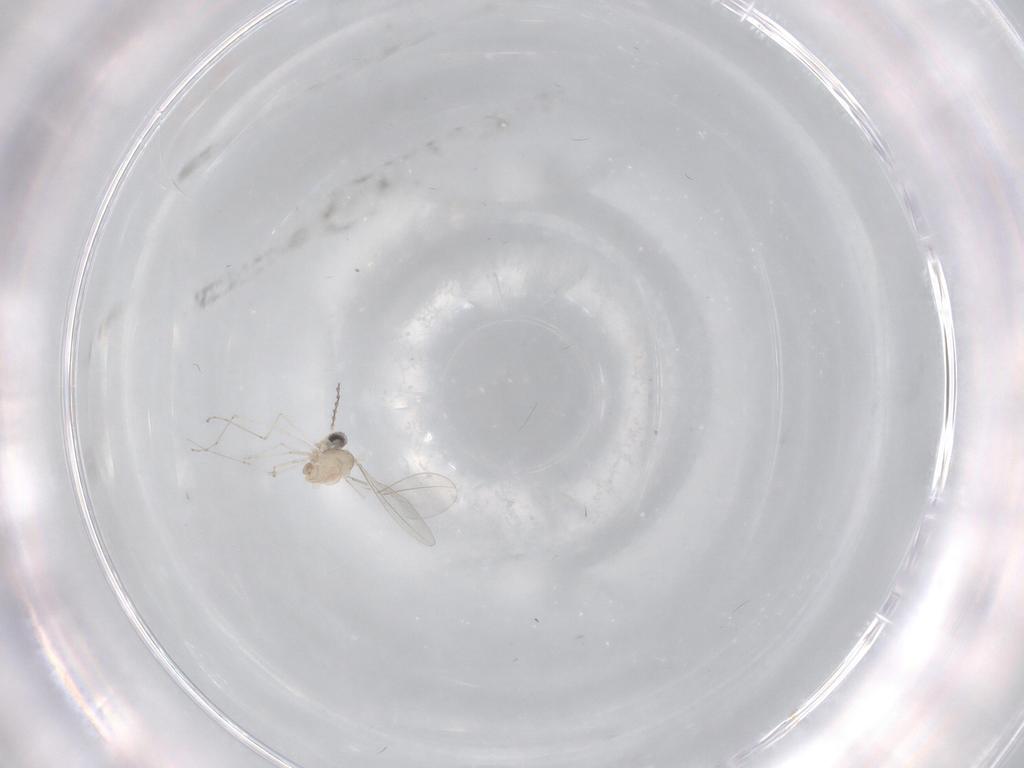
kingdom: Animalia
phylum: Arthropoda
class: Insecta
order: Diptera
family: Cecidomyiidae
